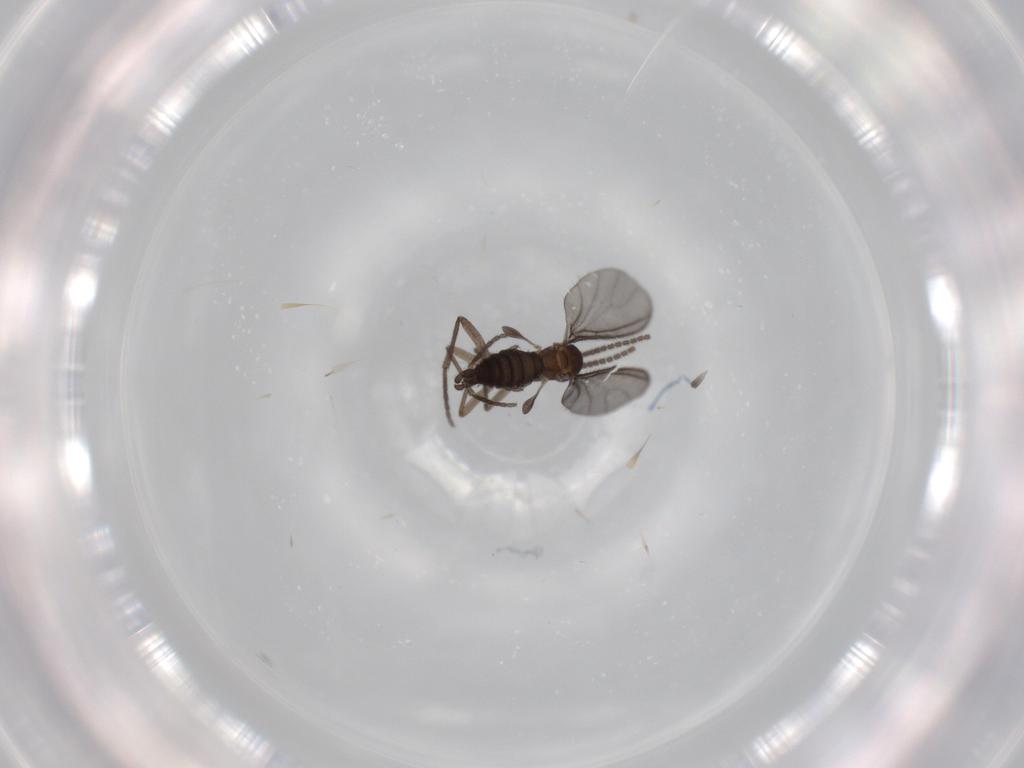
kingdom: Animalia
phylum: Arthropoda
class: Insecta
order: Diptera
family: Sciaridae
